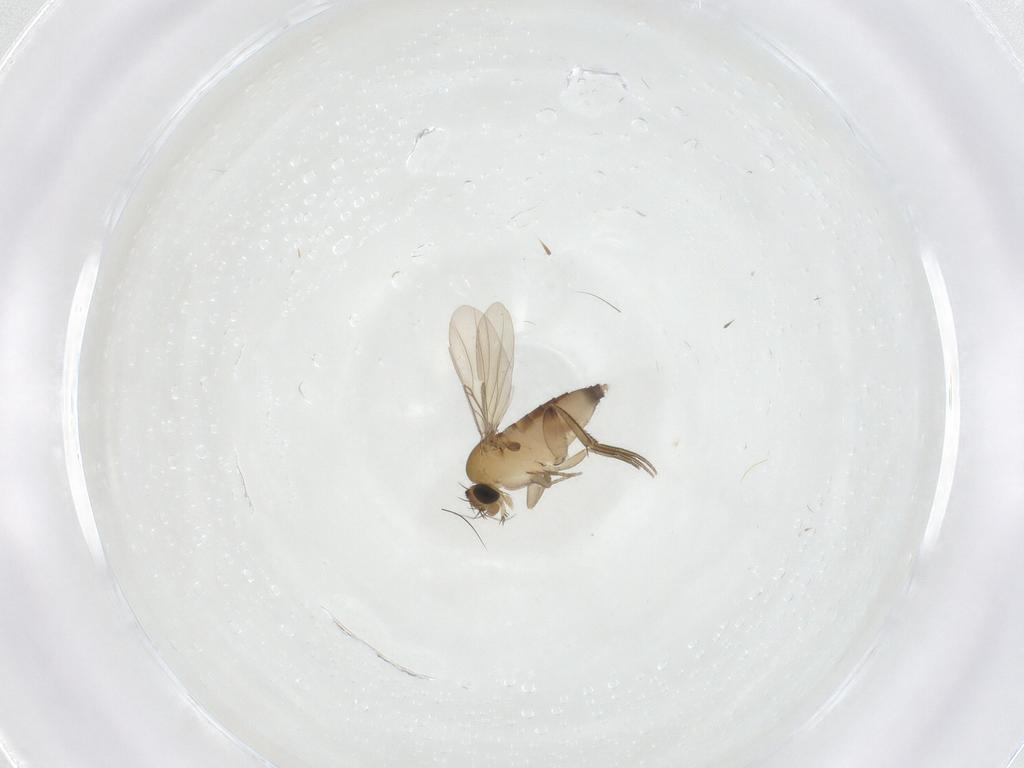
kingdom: Animalia
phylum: Arthropoda
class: Insecta
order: Diptera
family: Phoridae
